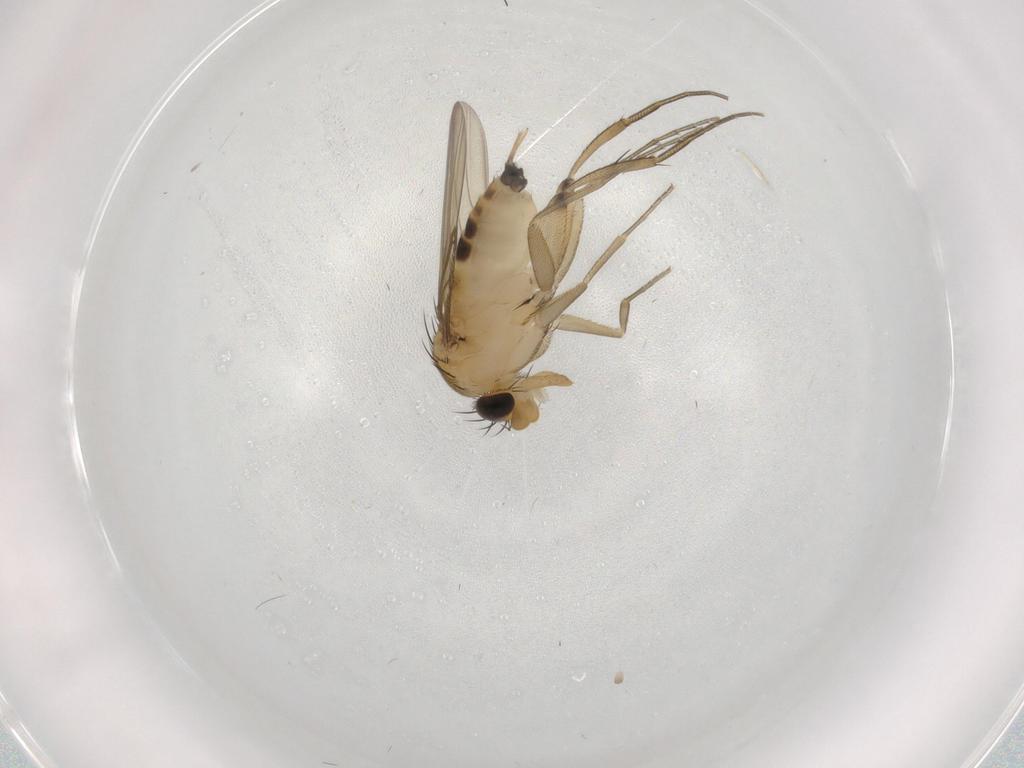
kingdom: Animalia
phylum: Arthropoda
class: Insecta
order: Diptera
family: Phoridae
